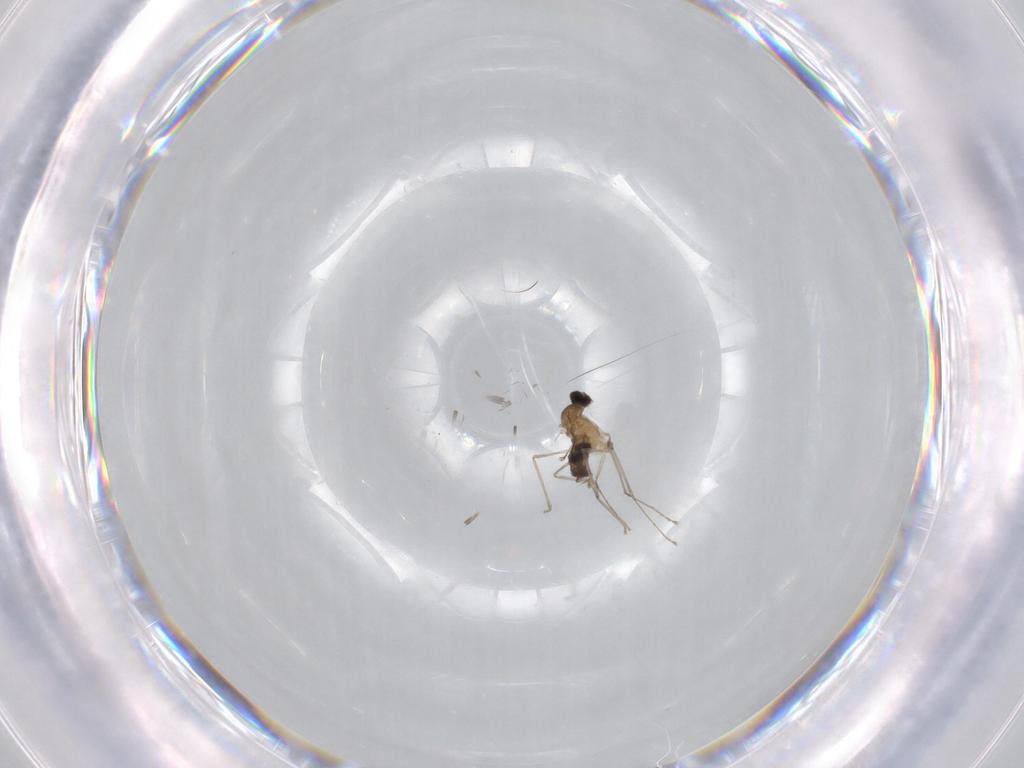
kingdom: Animalia
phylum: Arthropoda
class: Insecta
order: Diptera
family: Cecidomyiidae
